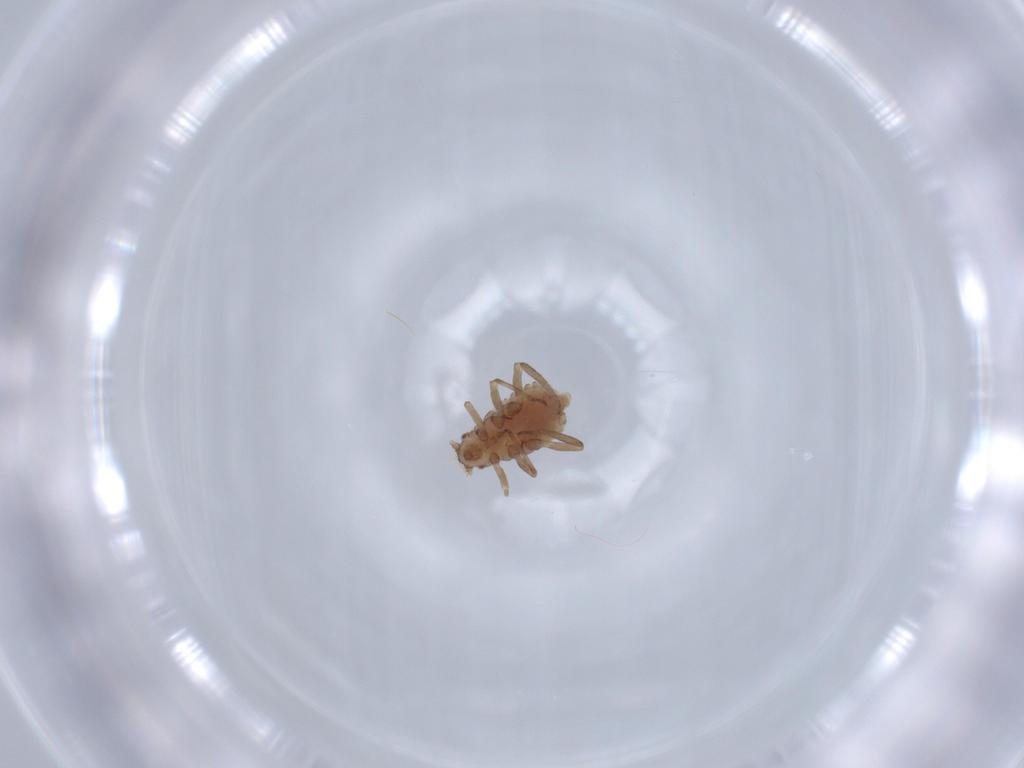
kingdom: Animalia
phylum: Arthropoda
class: Insecta
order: Hemiptera
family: Aphididae
